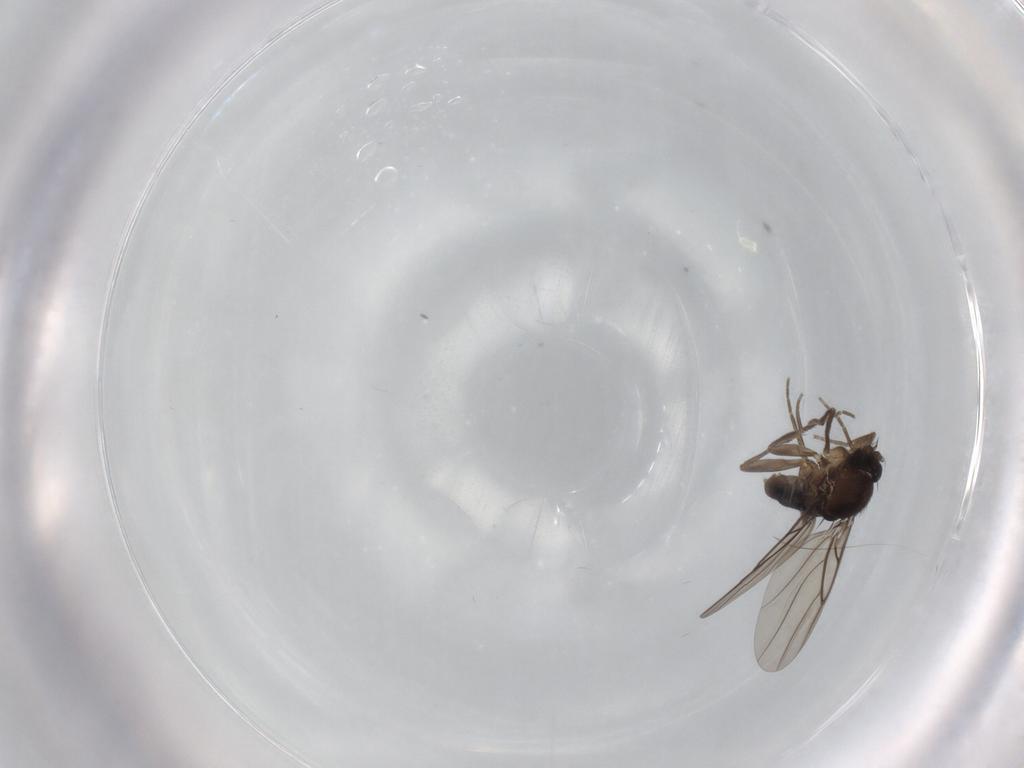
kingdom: Animalia
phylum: Arthropoda
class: Insecta
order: Diptera
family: Phoridae
